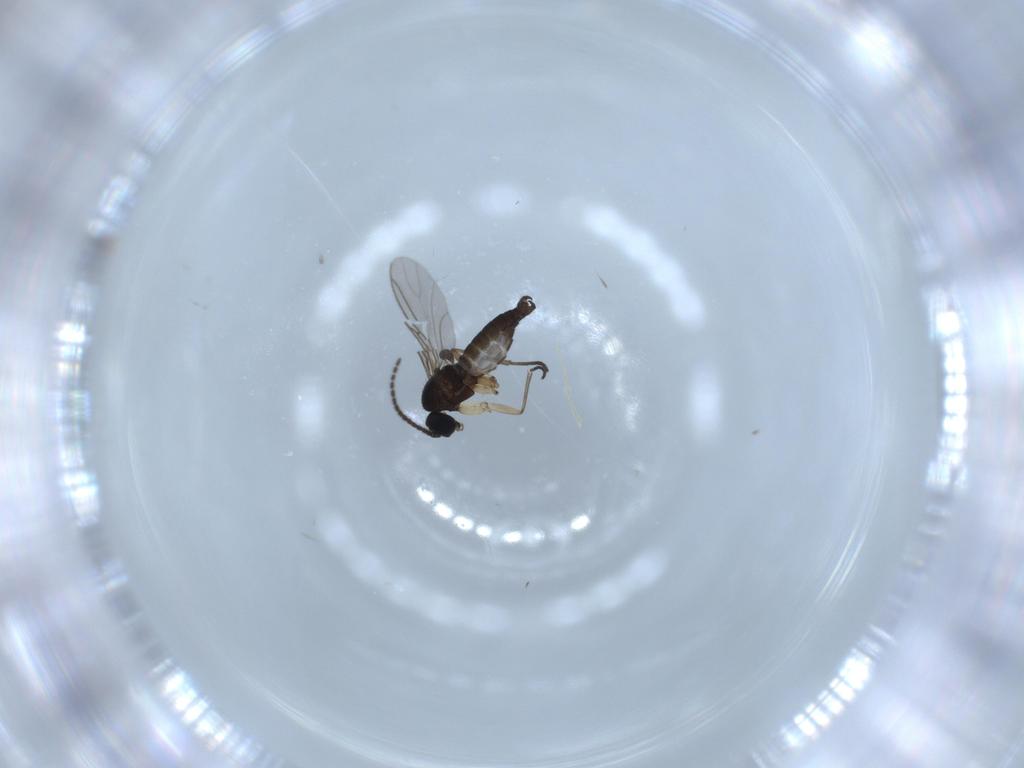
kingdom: Animalia
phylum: Arthropoda
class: Insecta
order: Diptera
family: Sciaridae
